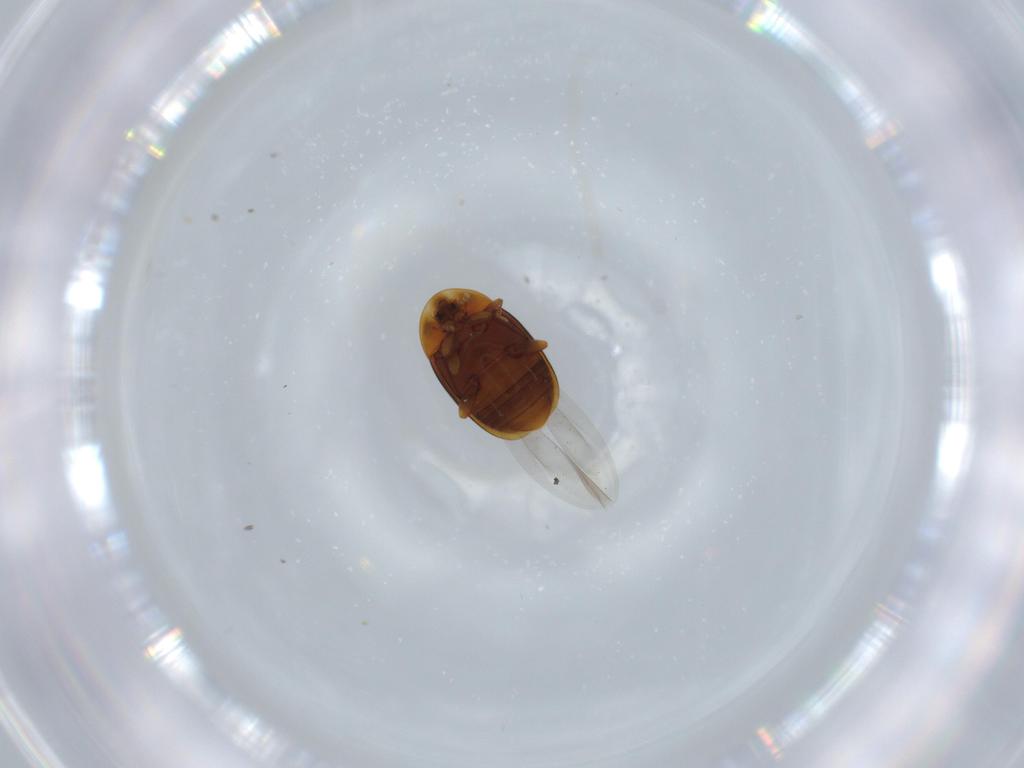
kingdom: Animalia
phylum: Arthropoda
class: Insecta
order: Coleoptera
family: Corylophidae
